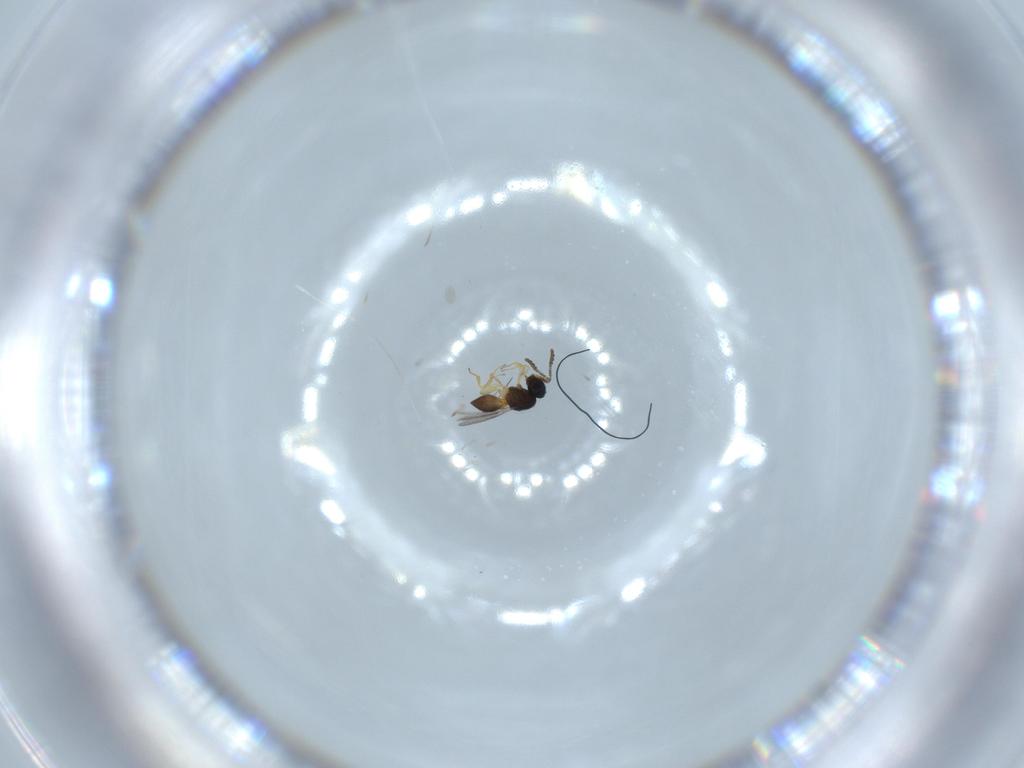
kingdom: Animalia
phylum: Arthropoda
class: Insecta
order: Hymenoptera
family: Scelionidae
